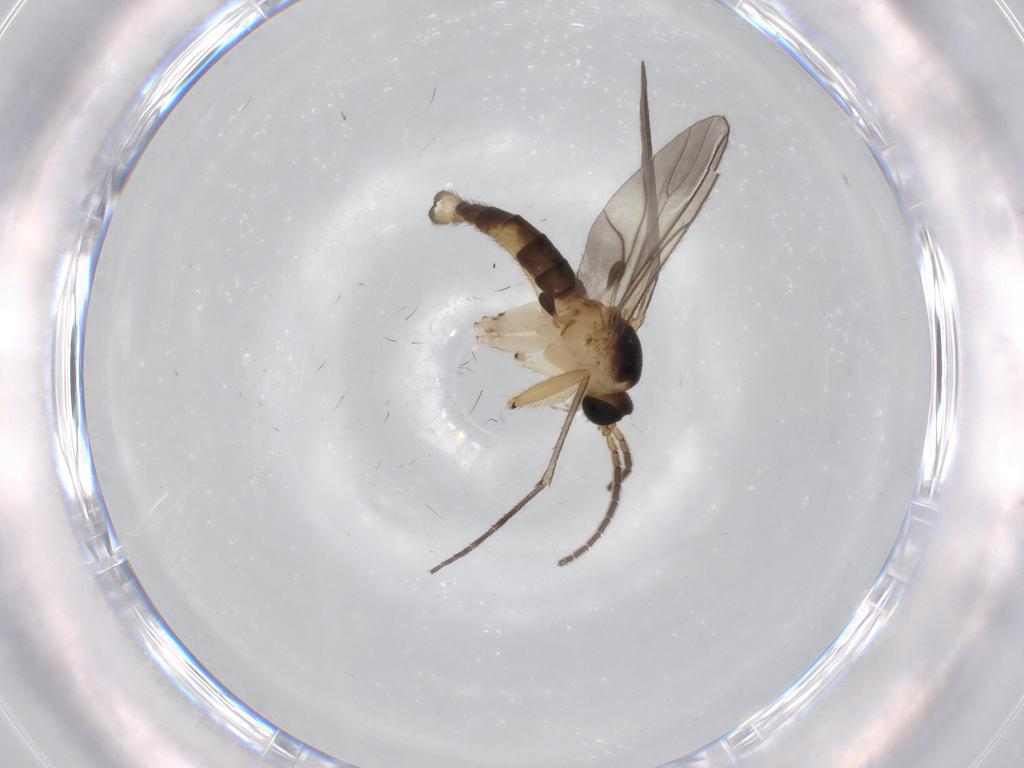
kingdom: Animalia
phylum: Arthropoda
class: Insecta
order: Diptera
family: Sciaridae
